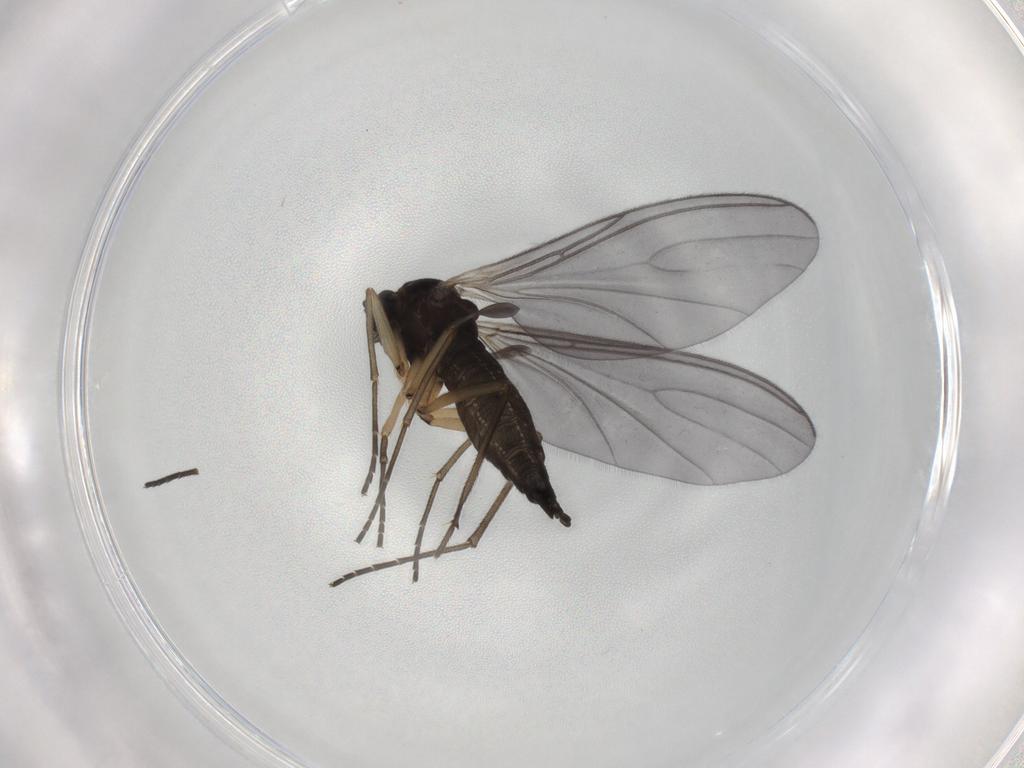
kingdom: Animalia
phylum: Arthropoda
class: Insecta
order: Diptera
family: Sciaridae
